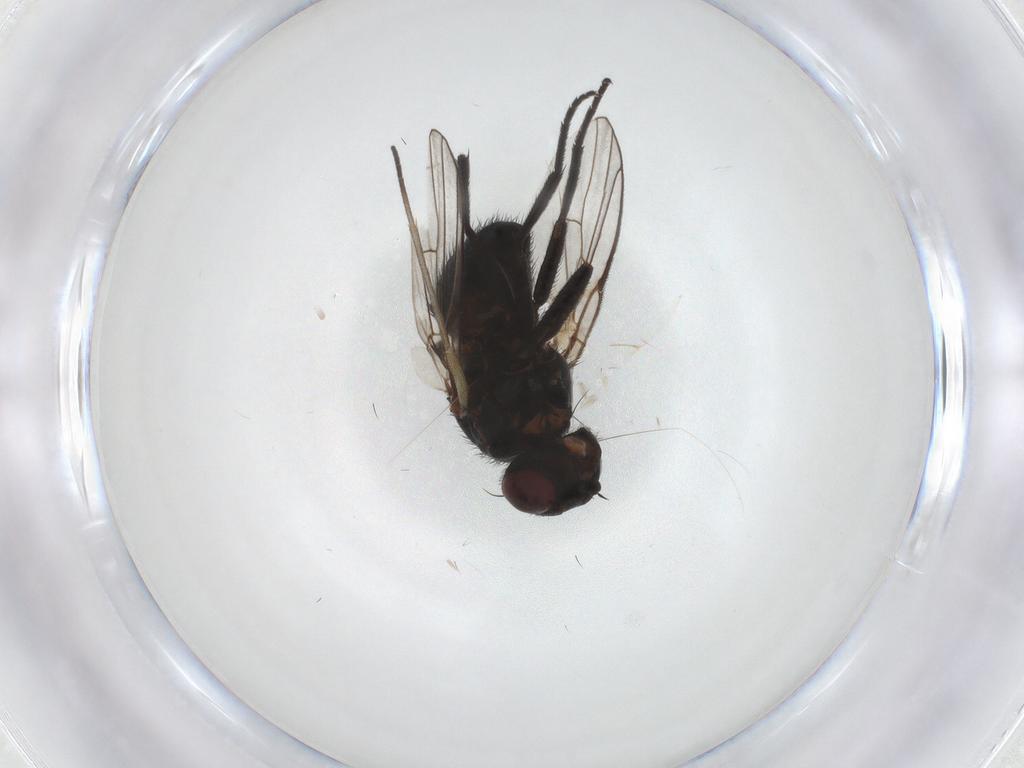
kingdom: Animalia
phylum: Arthropoda
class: Insecta
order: Diptera
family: Agromyzidae
